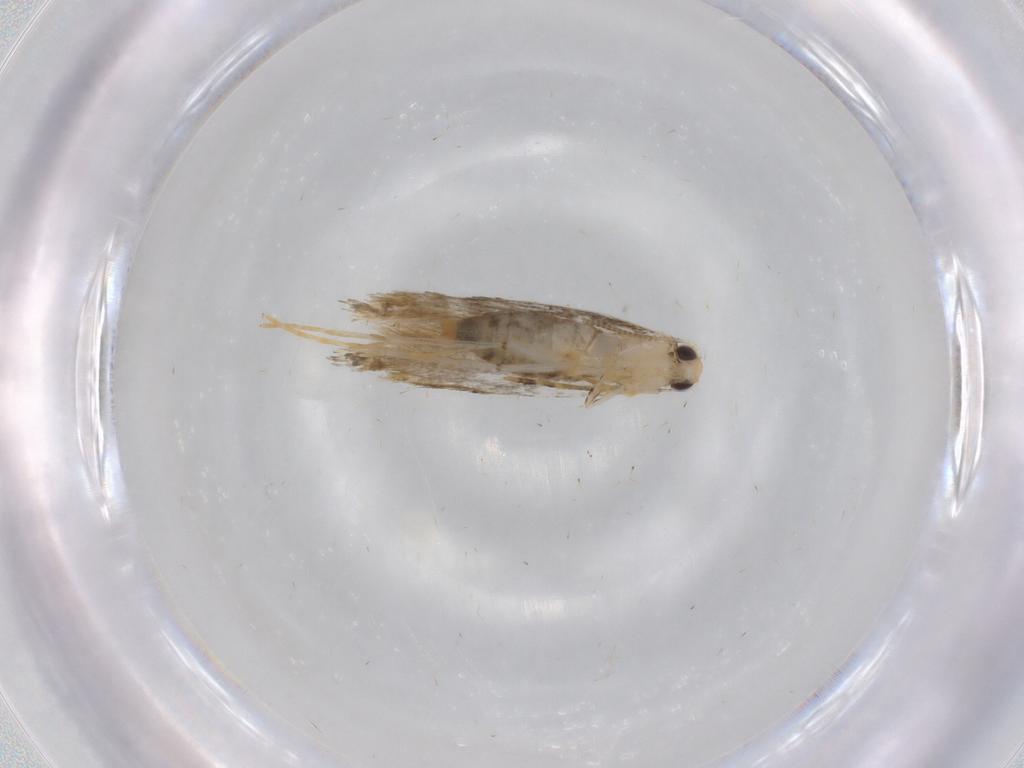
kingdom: Animalia
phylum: Arthropoda
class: Insecta
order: Lepidoptera
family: Tineidae
